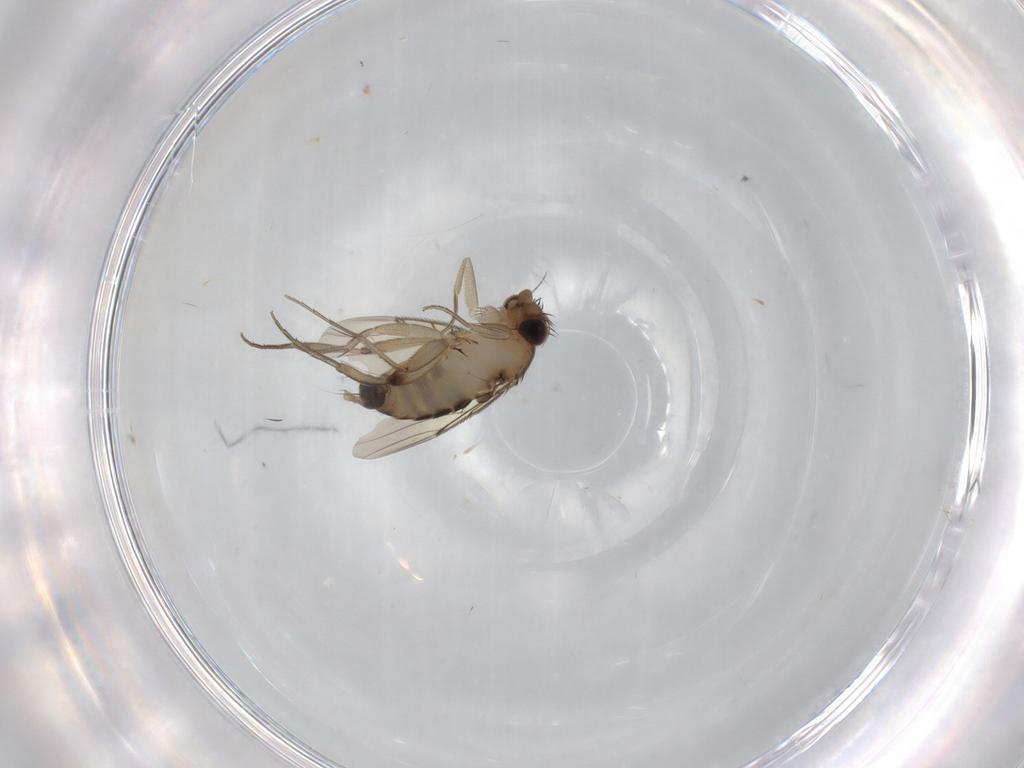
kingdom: Animalia
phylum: Arthropoda
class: Insecta
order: Diptera
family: Phoridae
